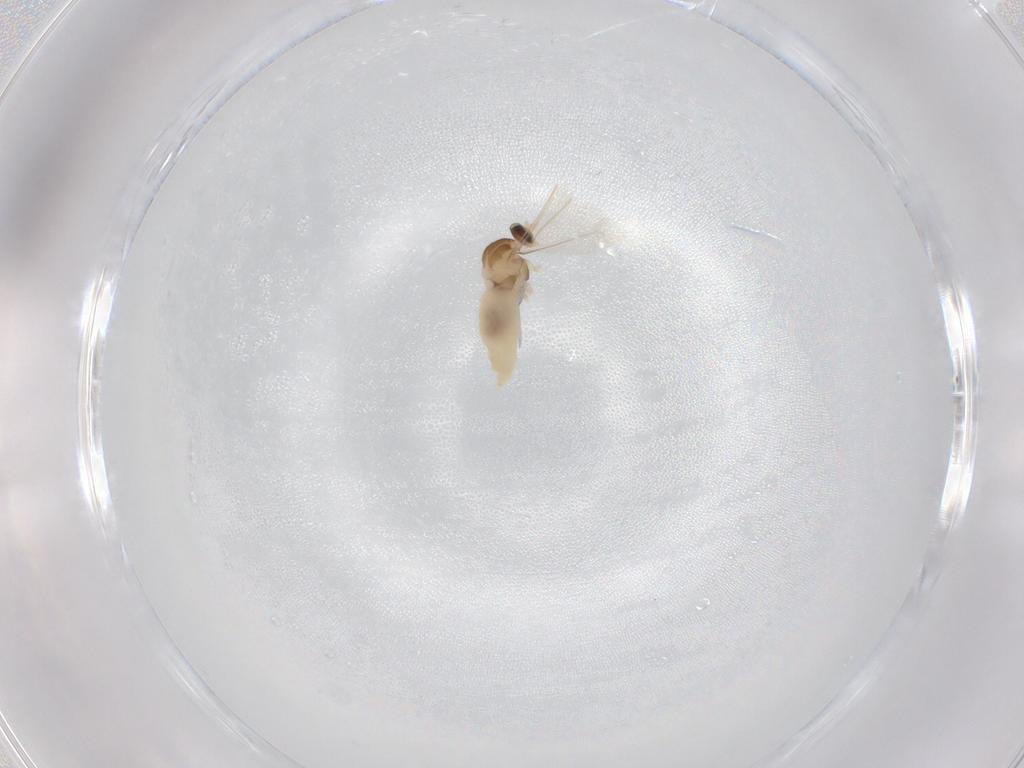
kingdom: Animalia
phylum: Arthropoda
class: Insecta
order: Diptera
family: Cecidomyiidae
